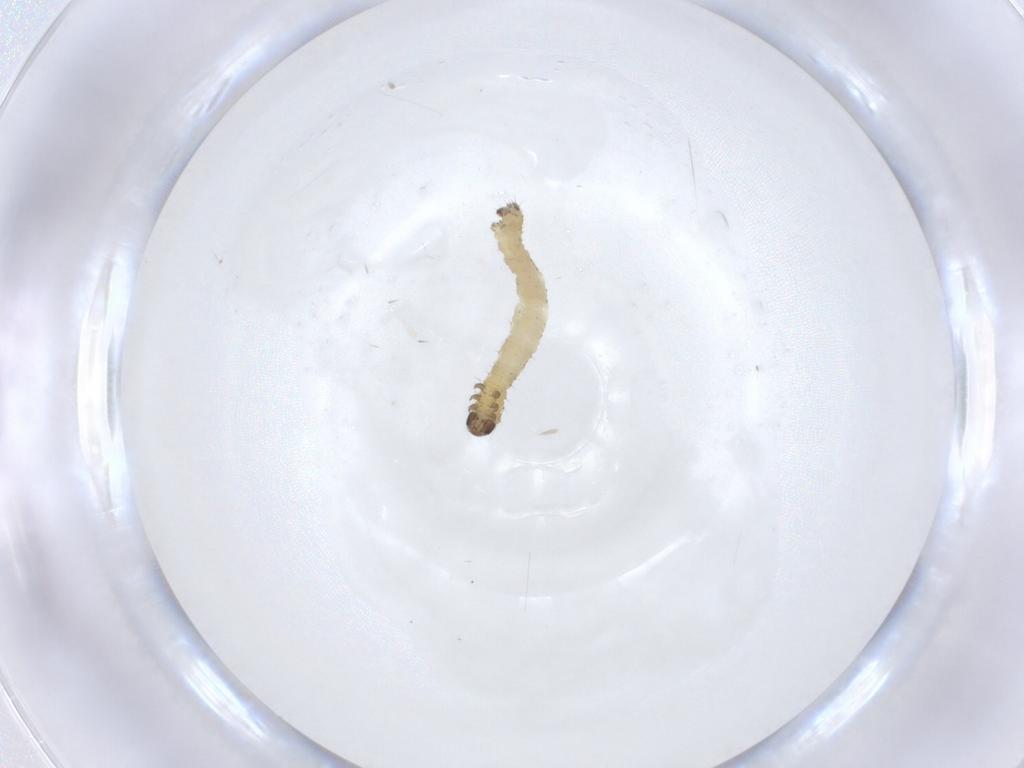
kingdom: Animalia
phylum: Arthropoda
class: Insecta
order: Lepidoptera
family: Geometridae
